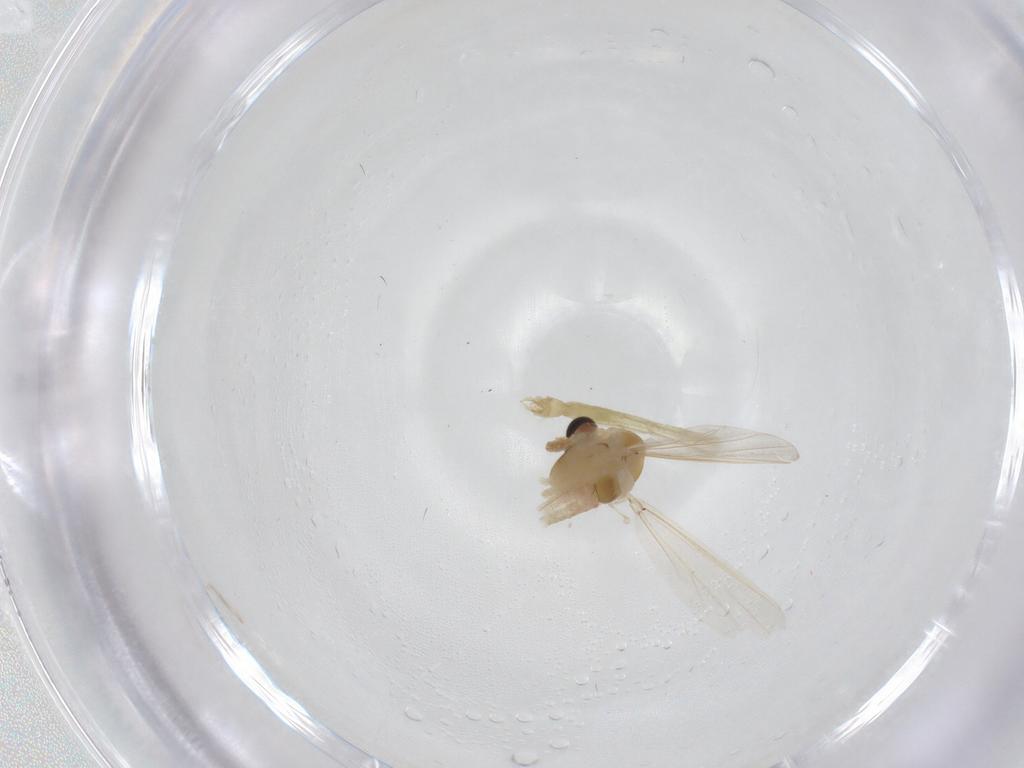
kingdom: Animalia
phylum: Arthropoda
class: Insecta
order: Diptera
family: Chironomidae
